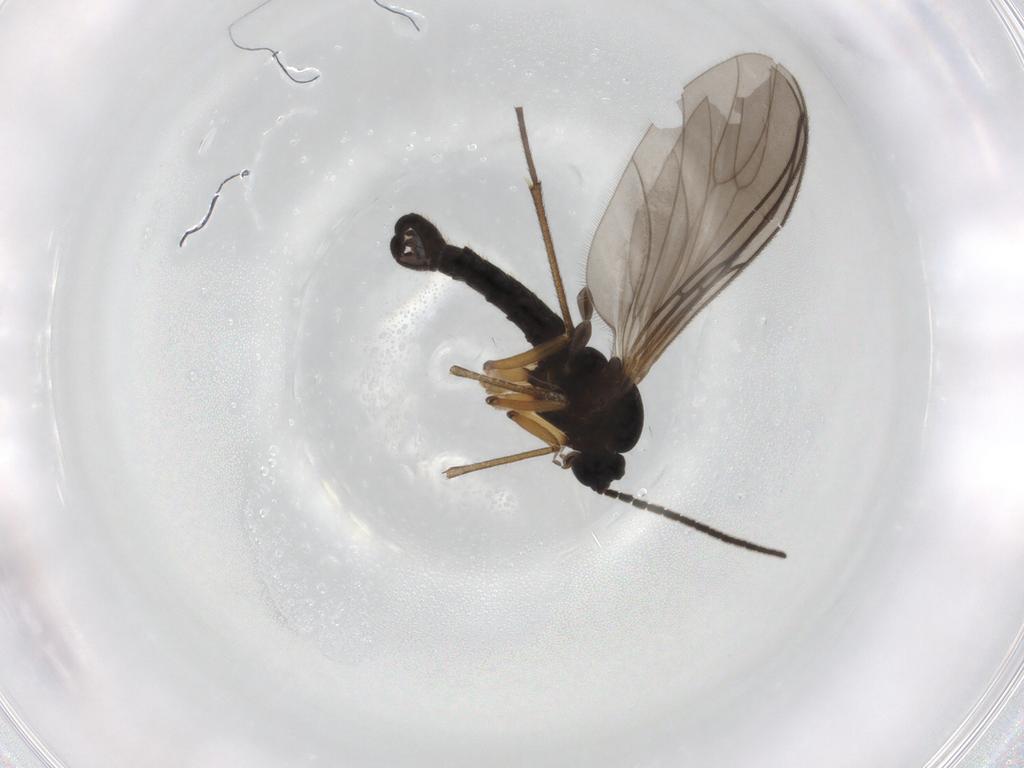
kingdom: Animalia
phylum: Arthropoda
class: Insecta
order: Diptera
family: Sciaridae
